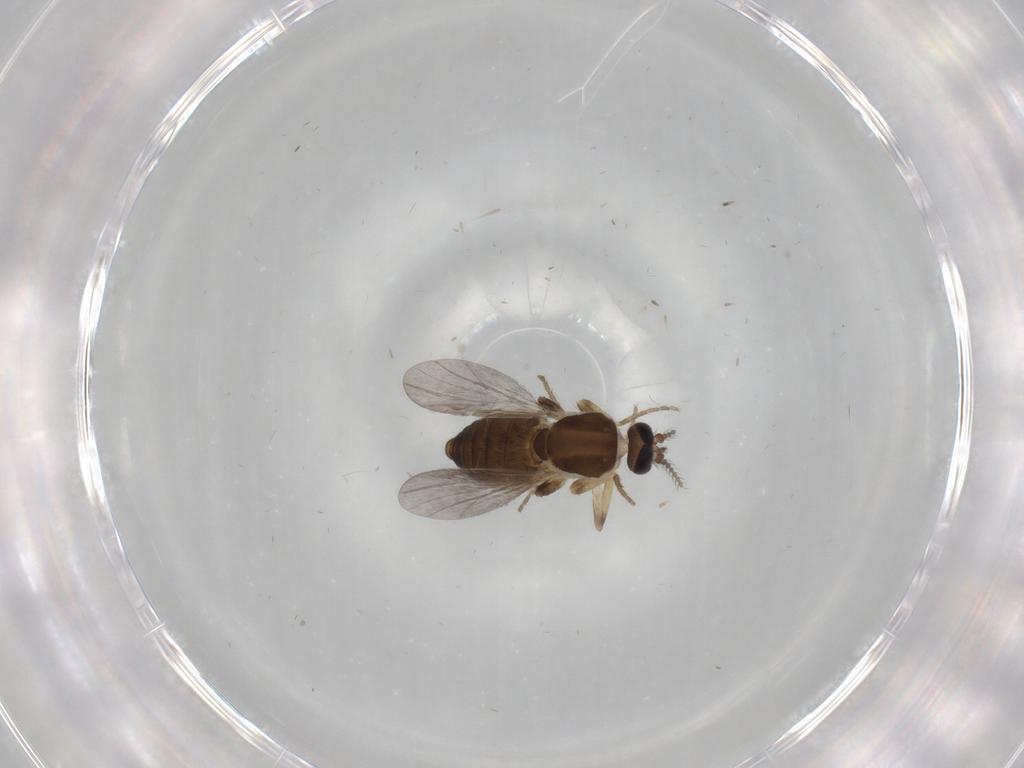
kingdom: Animalia
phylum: Arthropoda
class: Insecta
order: Diptera
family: Ceratopogonidae
